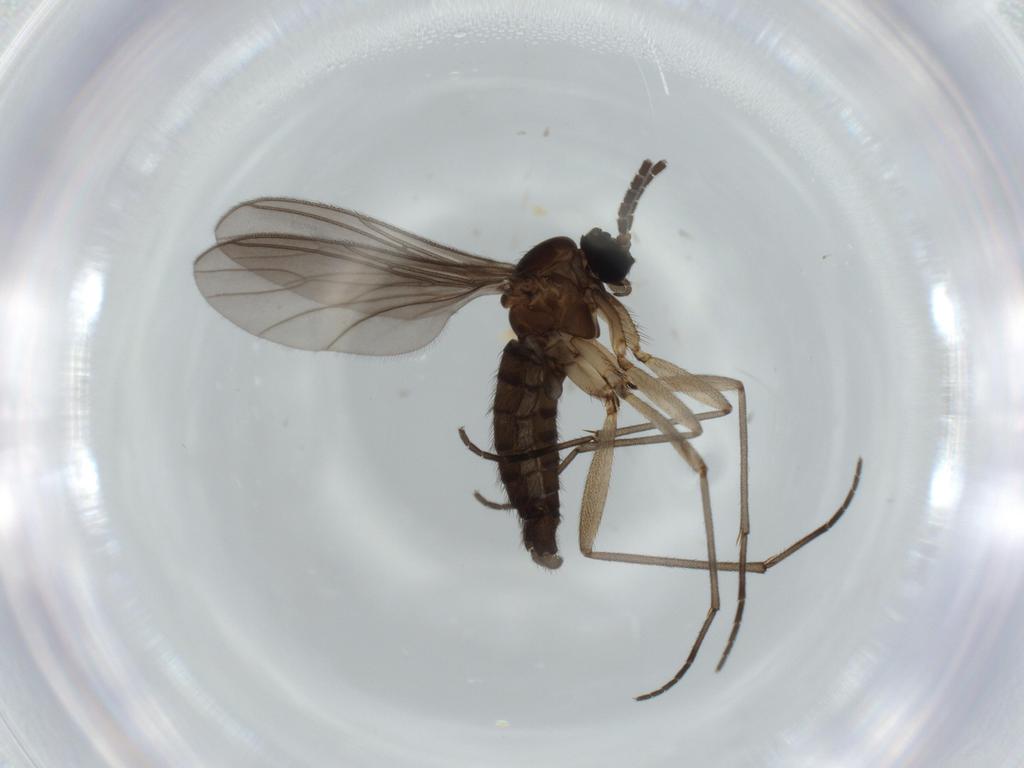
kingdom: Animalia
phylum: Arthropoda
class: Insecta
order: Diptera
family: Sciaridae
